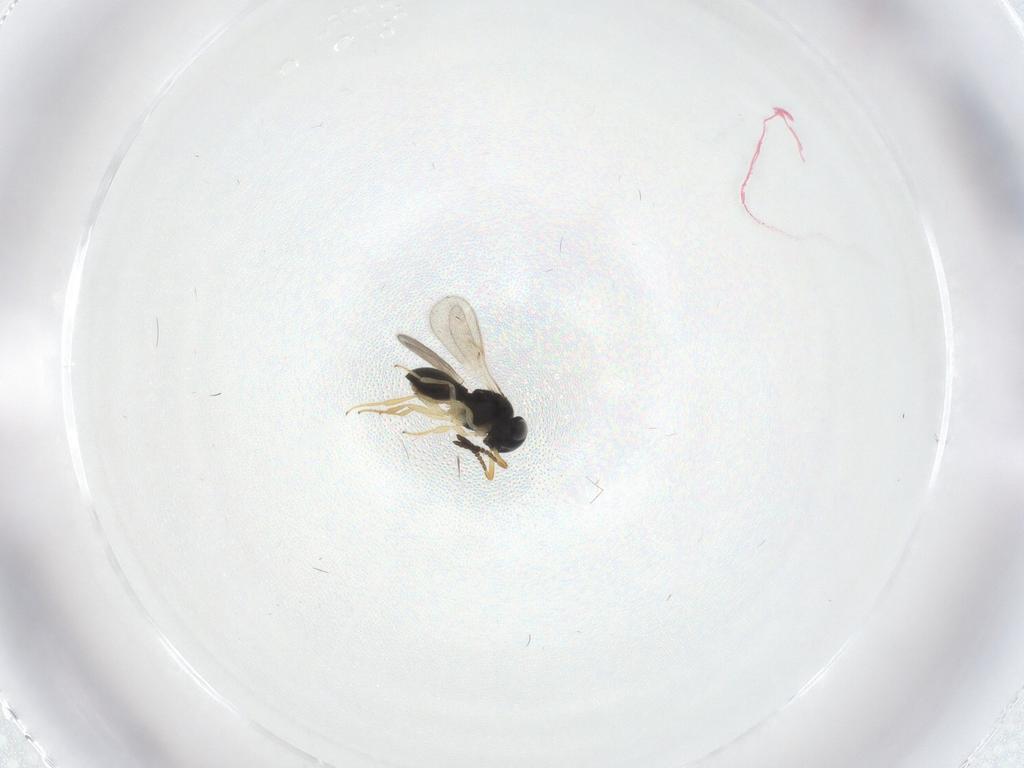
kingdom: Animalia
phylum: Arthropoda
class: Insecta
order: Hymenoptera
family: Scelionidae
